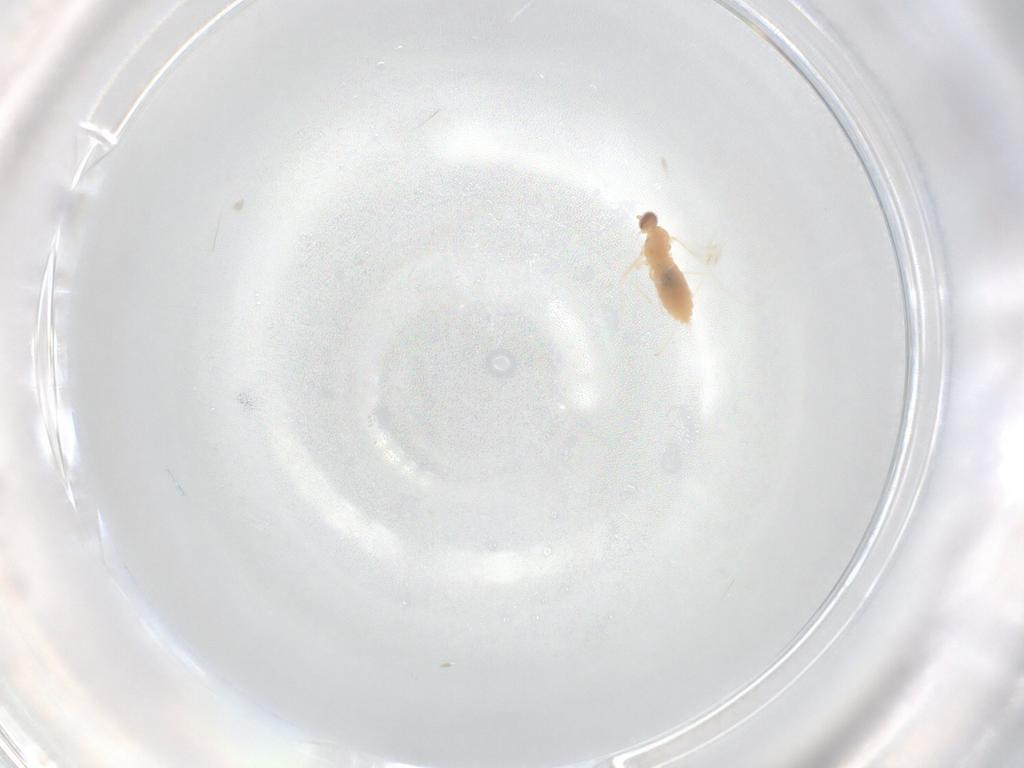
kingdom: Animalia
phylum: Arthropoda
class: Insecta
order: Diptera
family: Cecidomyiidae
